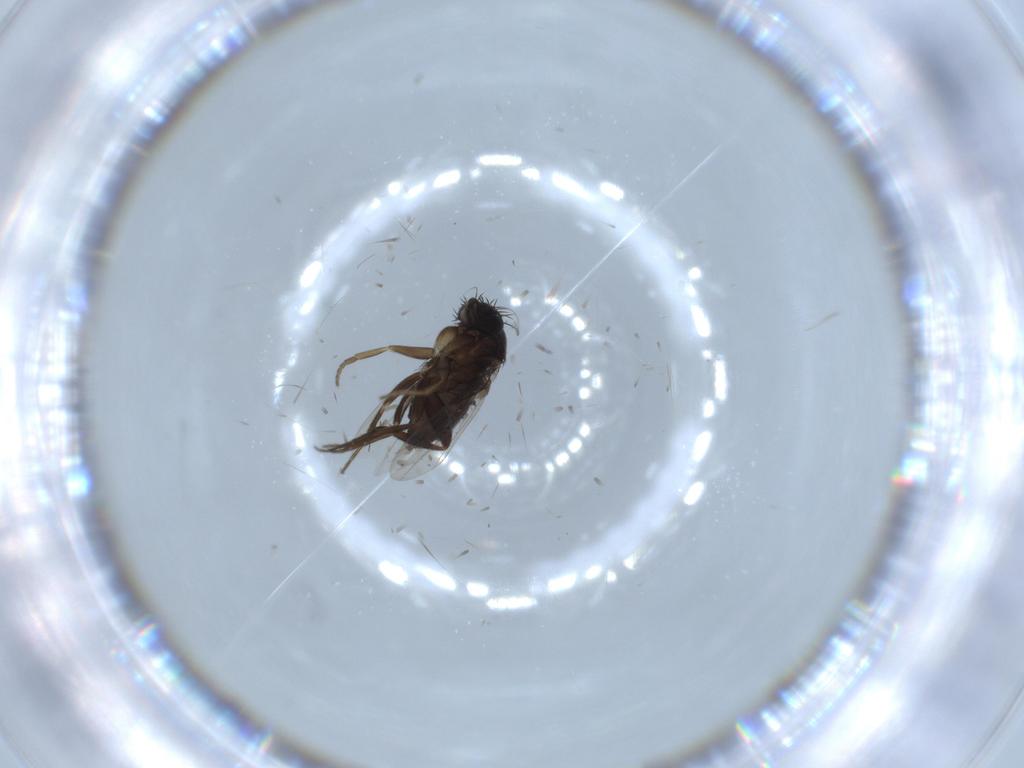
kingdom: Animalia
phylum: Arthropoda
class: Insecta
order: Diptera
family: Phoridae
